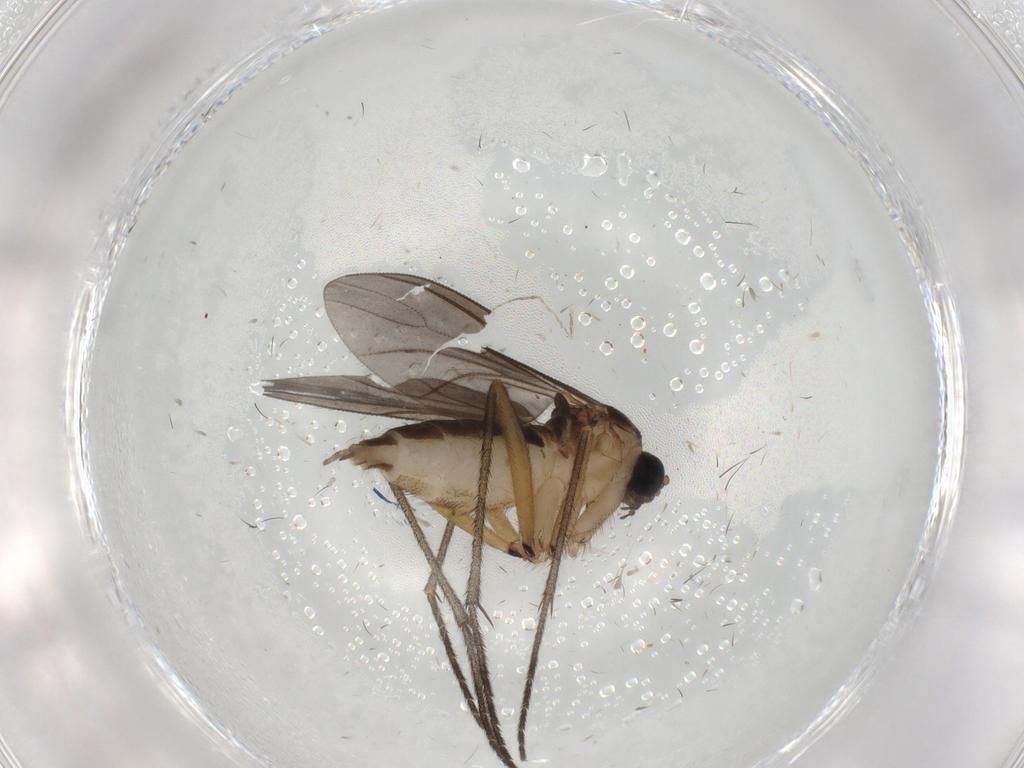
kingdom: Animalia
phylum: Arthropoda
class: Insecta
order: Diptera
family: Sciaridae
